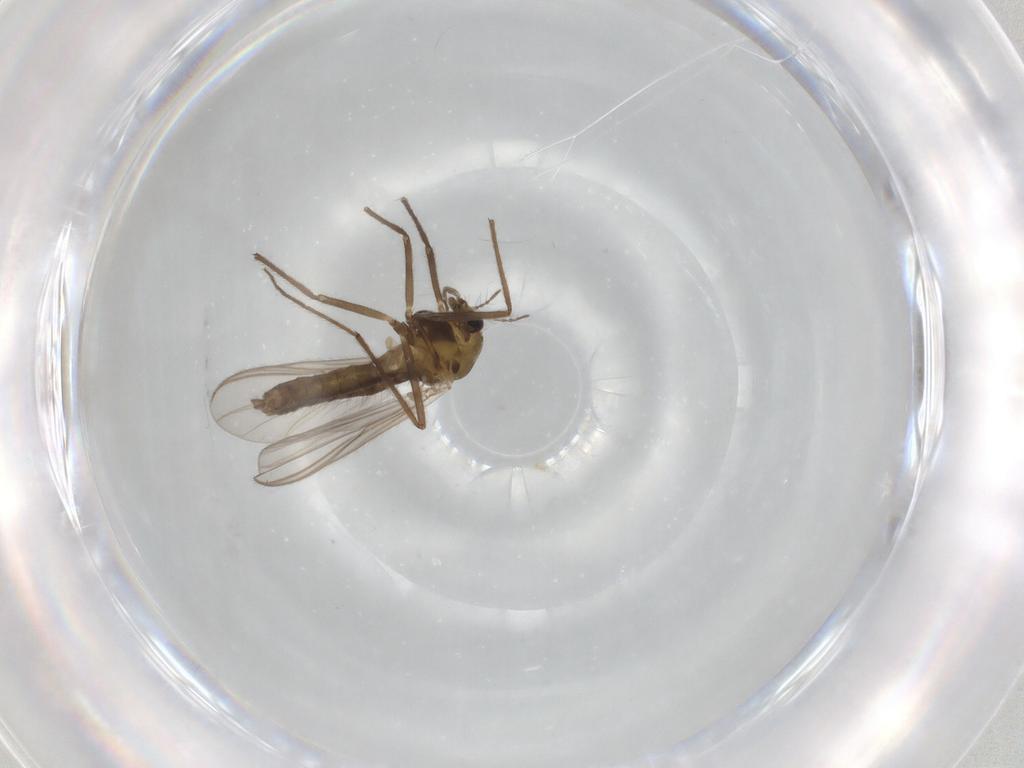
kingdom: Animalia
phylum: Arthropoda
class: Insecta
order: Diptera
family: Chironomidae
